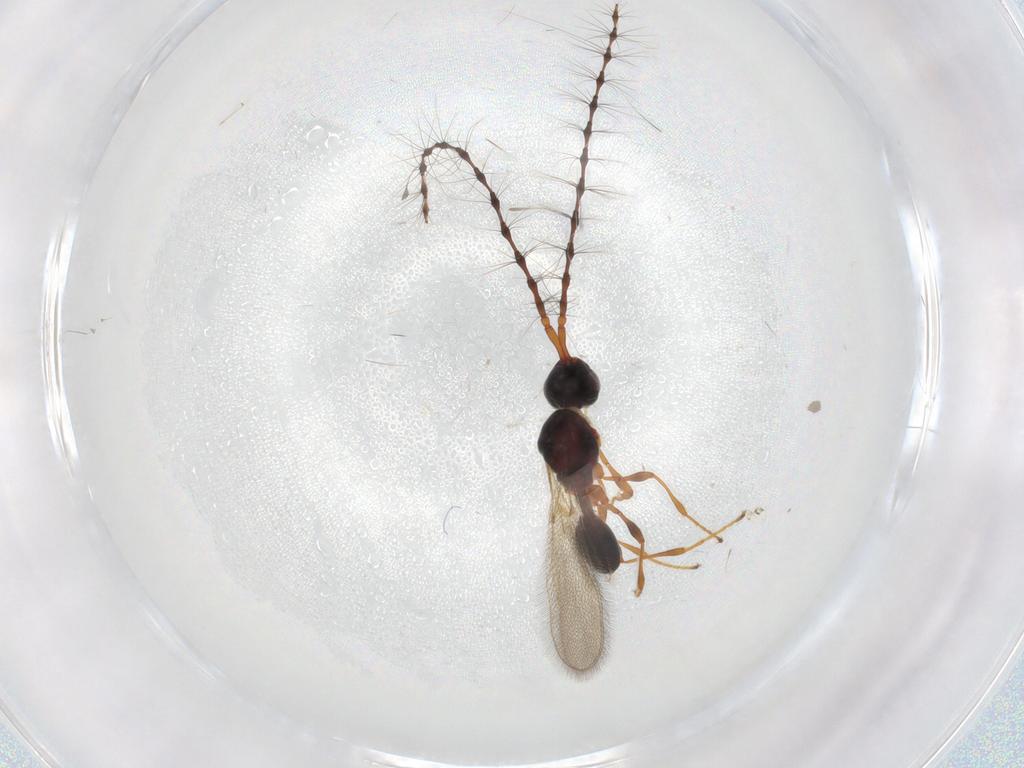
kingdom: Animalia
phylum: Arthropoda
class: Insecta
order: Hymenoptera
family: Diapriidae
